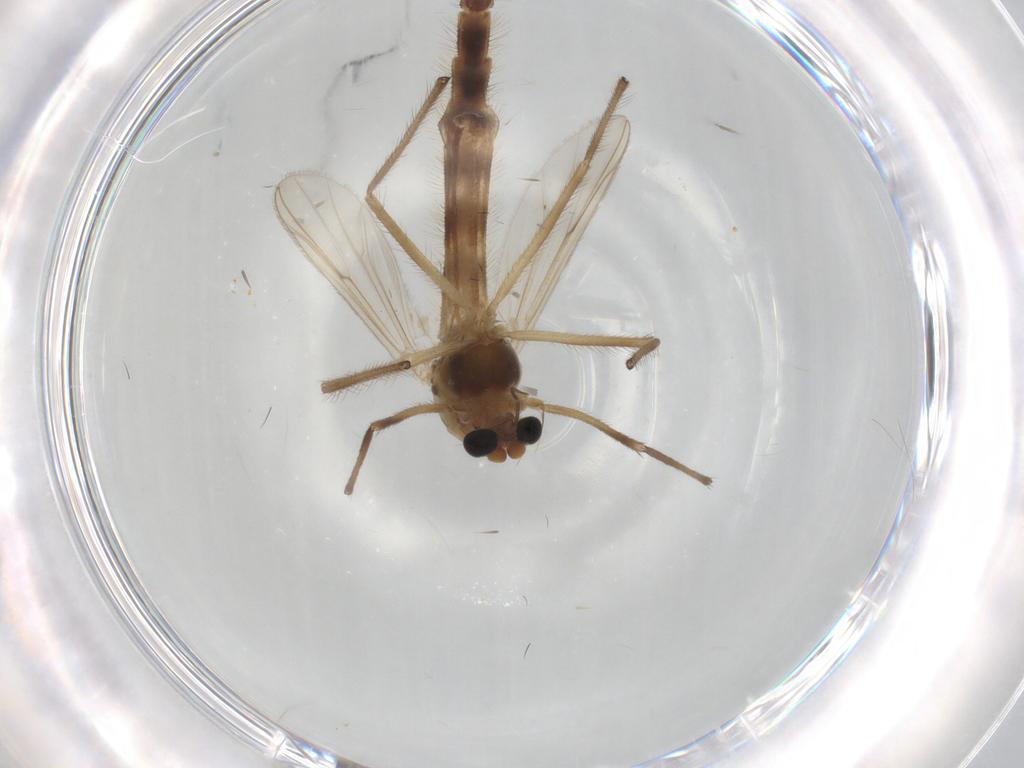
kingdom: Animalia
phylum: Arthropoda
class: Insecta
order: Diptera
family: Chironomidae
